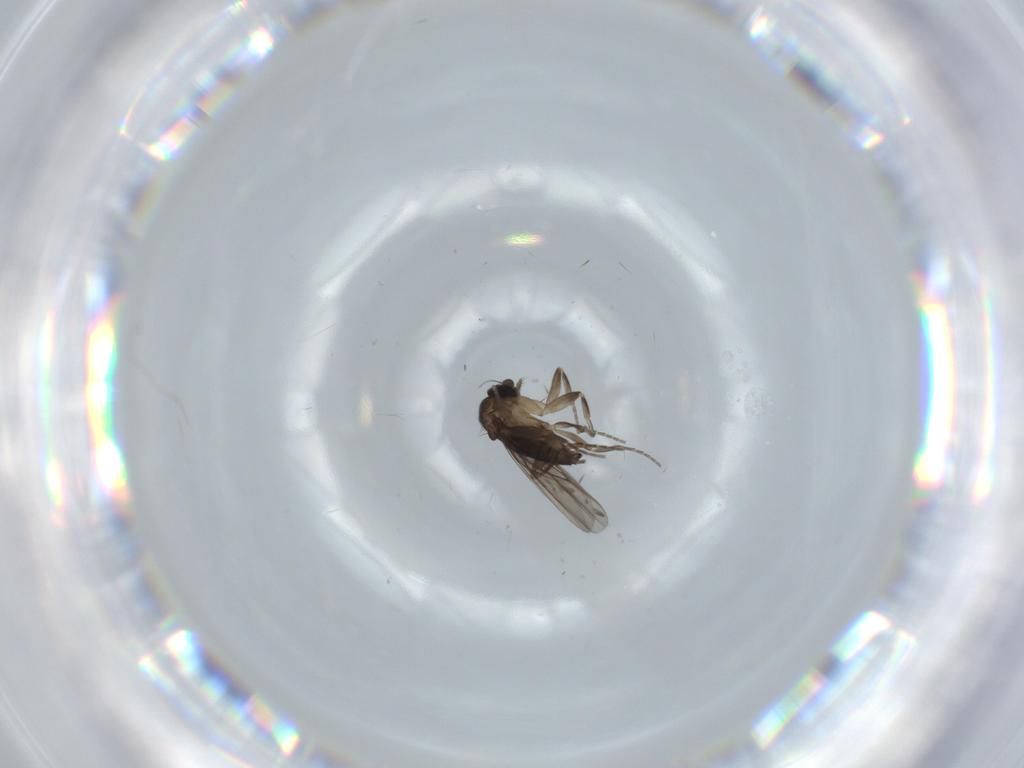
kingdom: Animalia
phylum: Arthropoda
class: Insecta
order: Diptera
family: Phoridae
